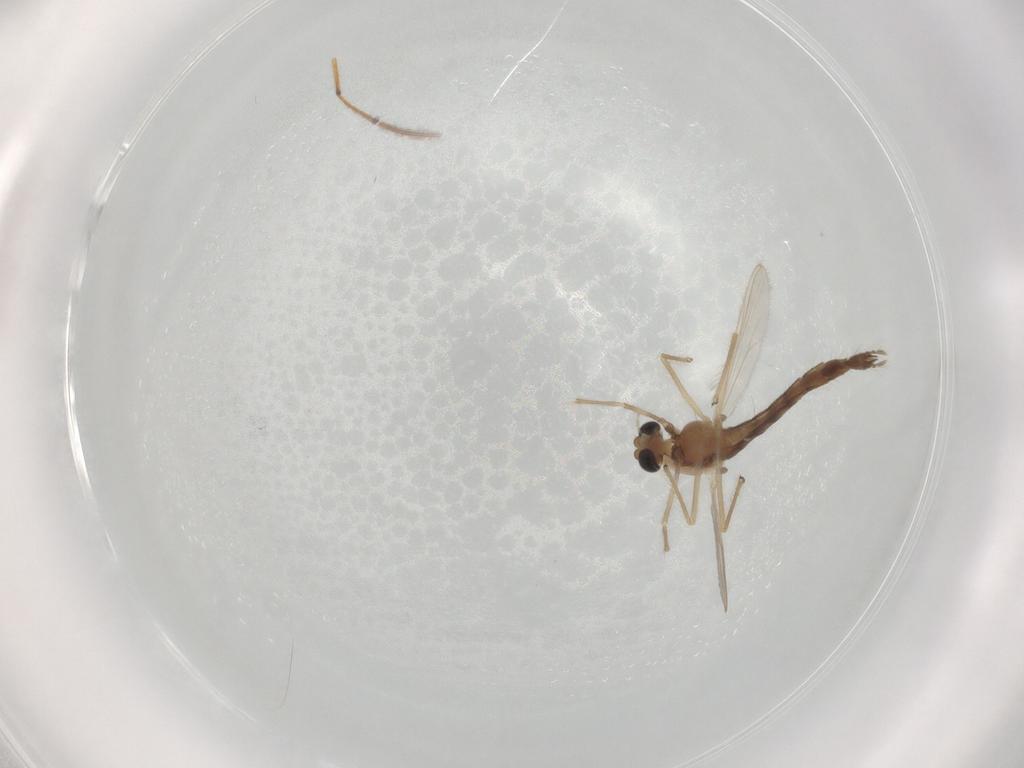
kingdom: Animalia
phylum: Arthropoda
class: Insecta
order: Diptera
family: Chironomidae
